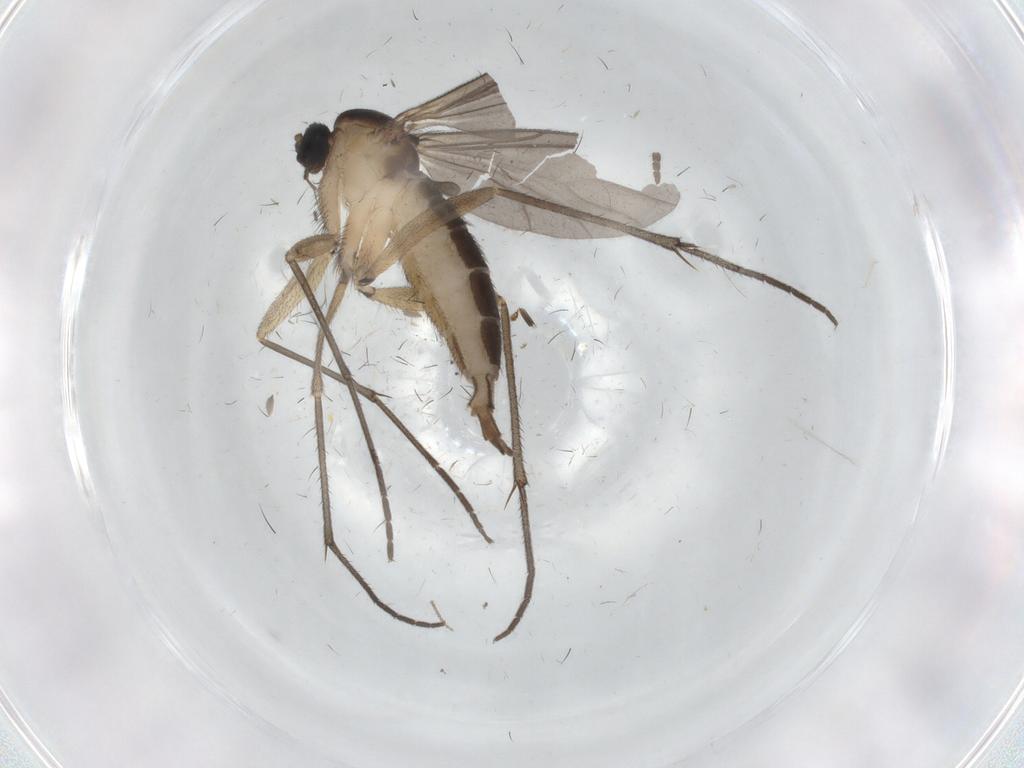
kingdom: Animalia
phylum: Arthropoda
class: Insecta
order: Diptera
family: Sciaridae
